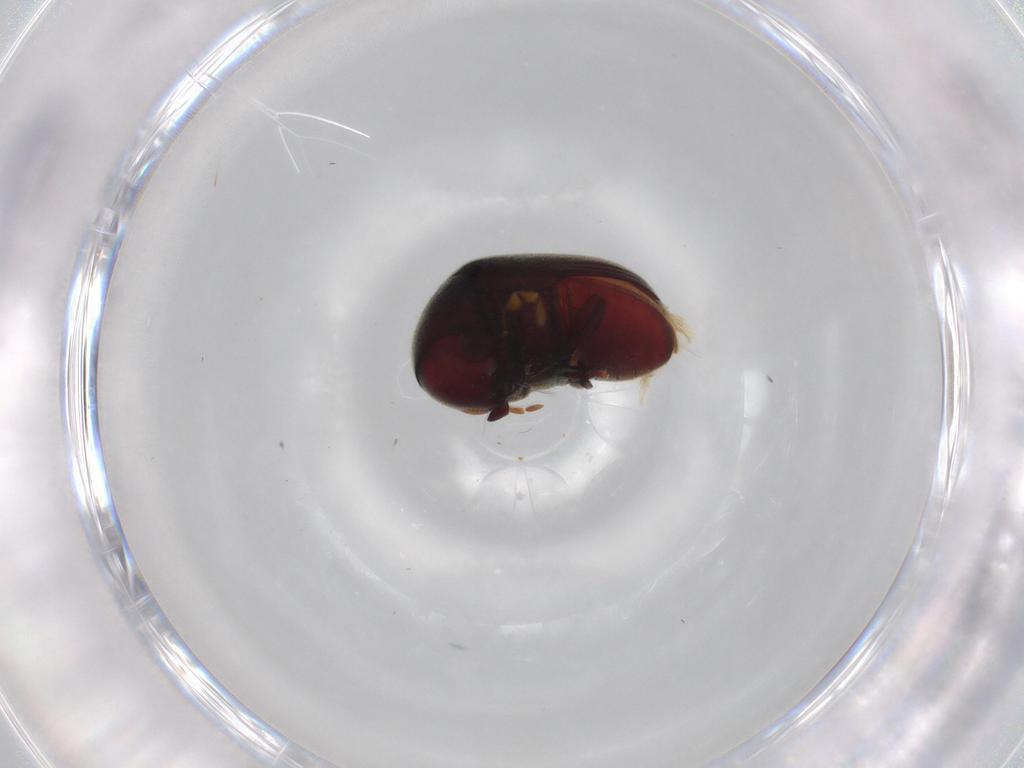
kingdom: Animalia
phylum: Arthropoda
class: Insecta
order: Coleoptera
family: Ptinidae
